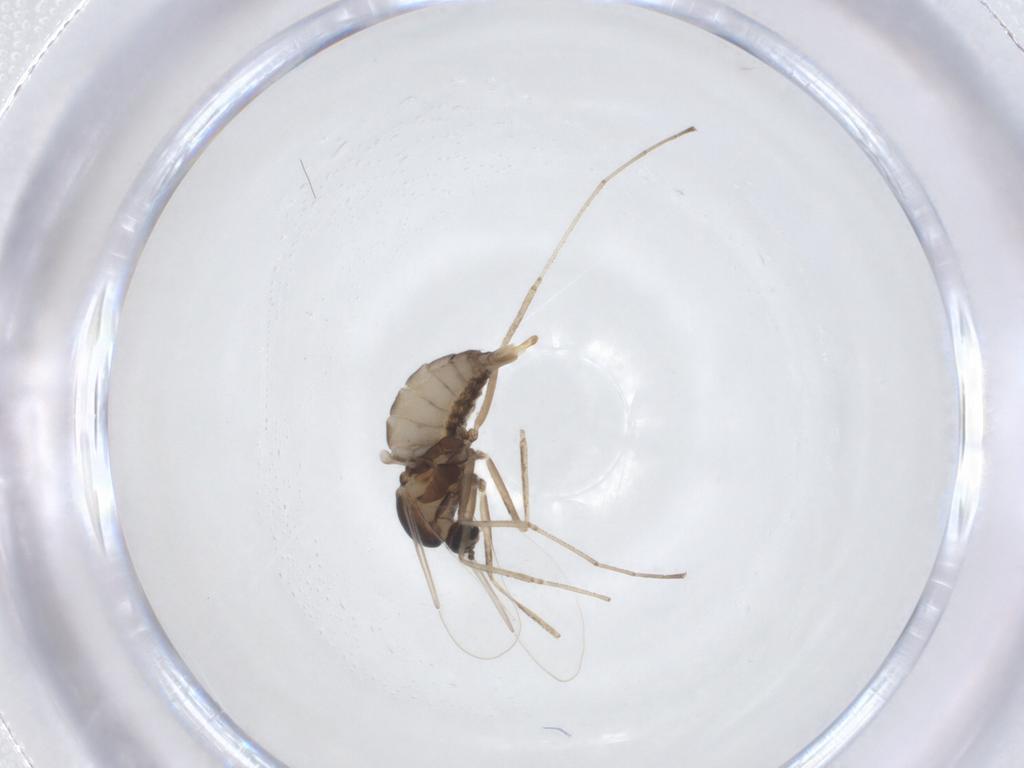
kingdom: Animalia
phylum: Arthropoda
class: Insecta
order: Diptera
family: Cecidomyiidae
